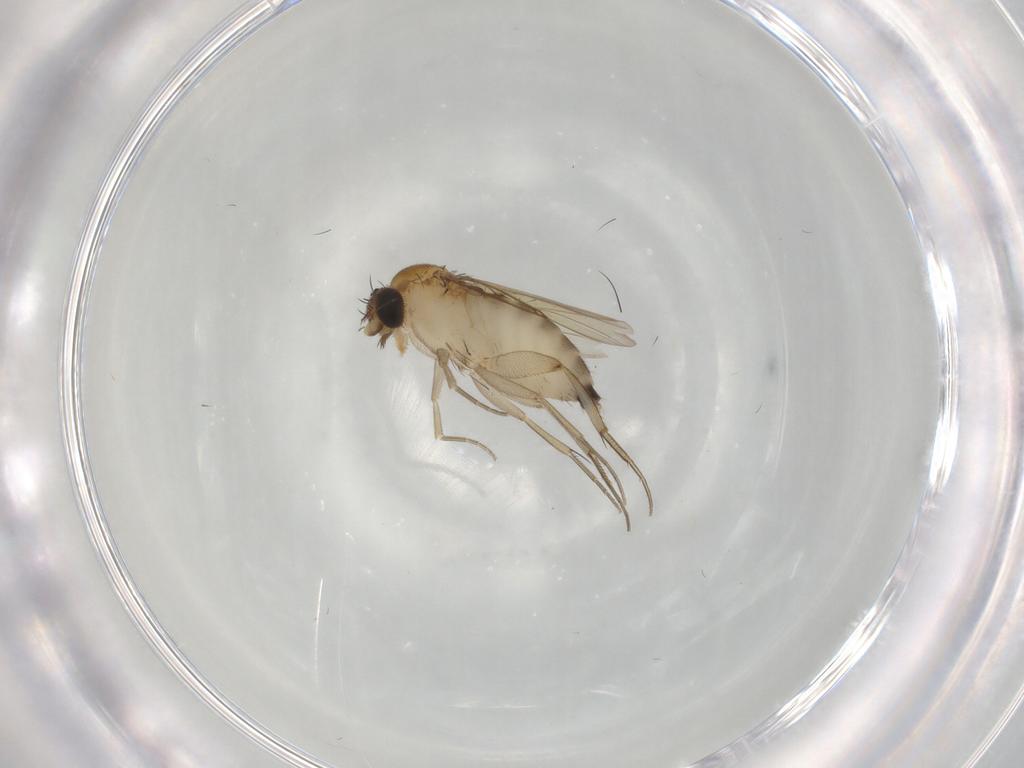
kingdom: Animalia
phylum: Arthropoda
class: Insecta
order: Diptera
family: Phoridae
